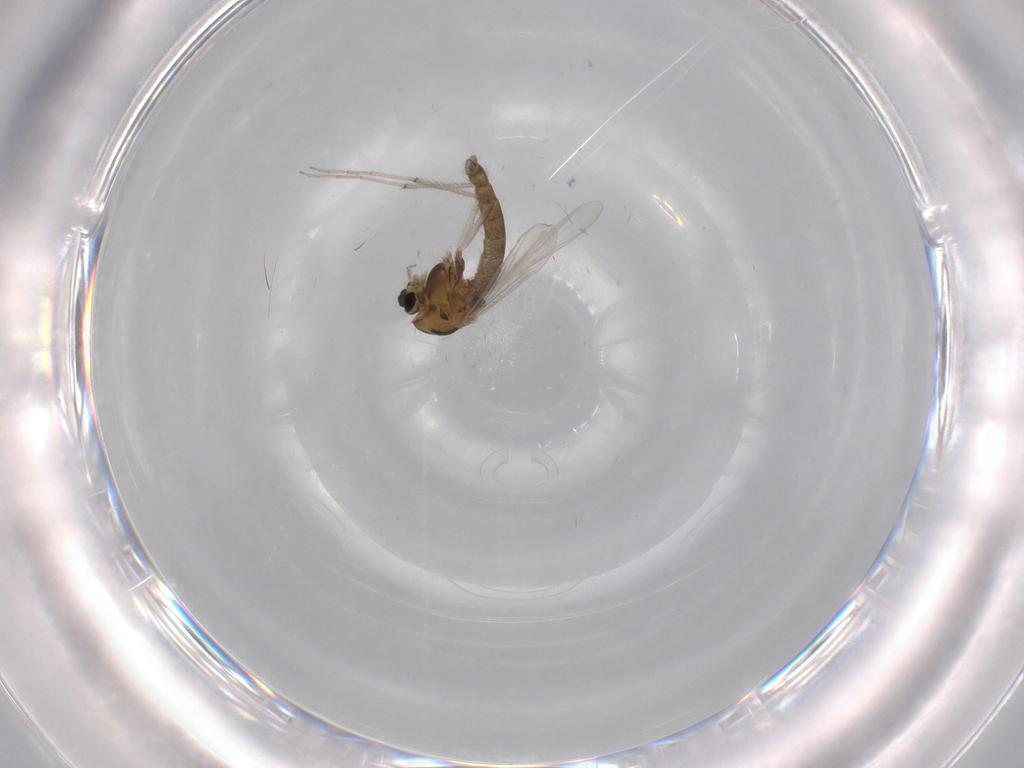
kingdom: Animalia
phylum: Arthropoda
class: Insecta
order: Diptera
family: Chironomidae
